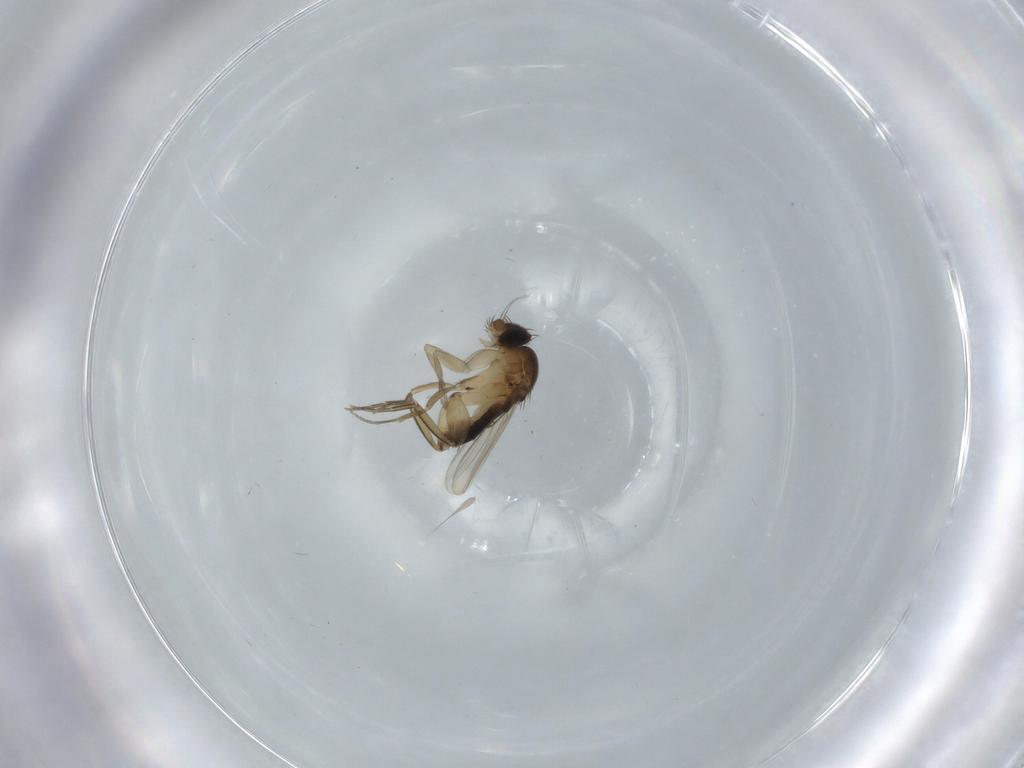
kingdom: Animalia
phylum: Arthropoda
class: Insecta
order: Diptera
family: Phoridae
